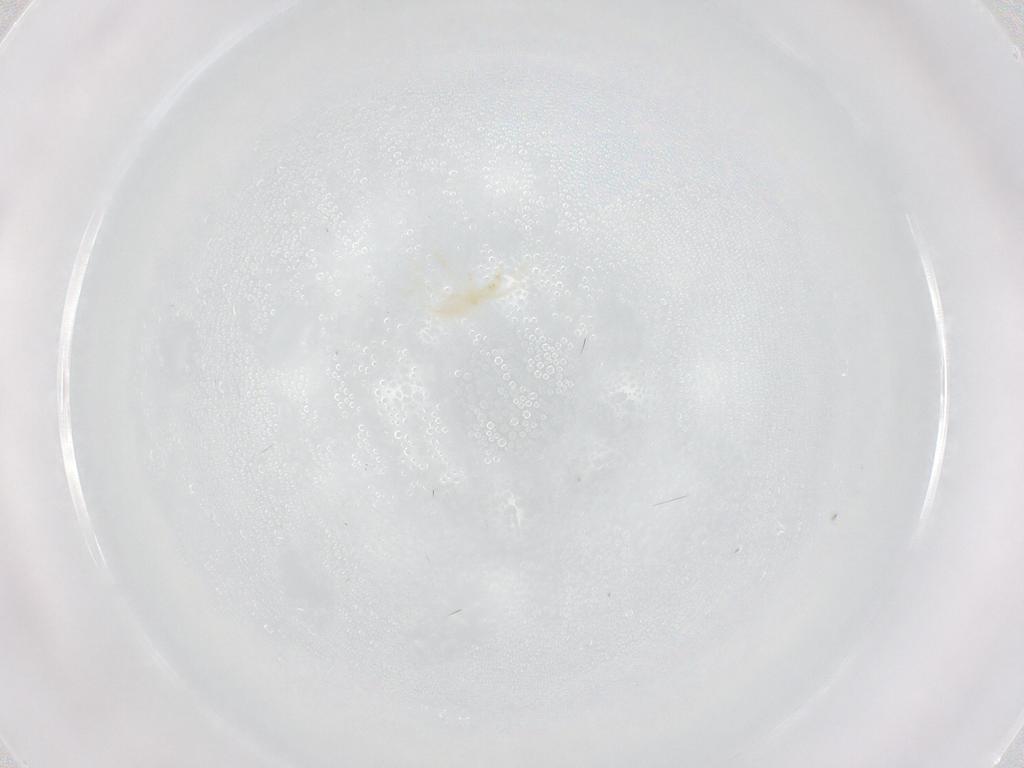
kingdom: Animalia
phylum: Arthropoda
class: Arachnida
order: Trombidiformes
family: Erythraeidae
